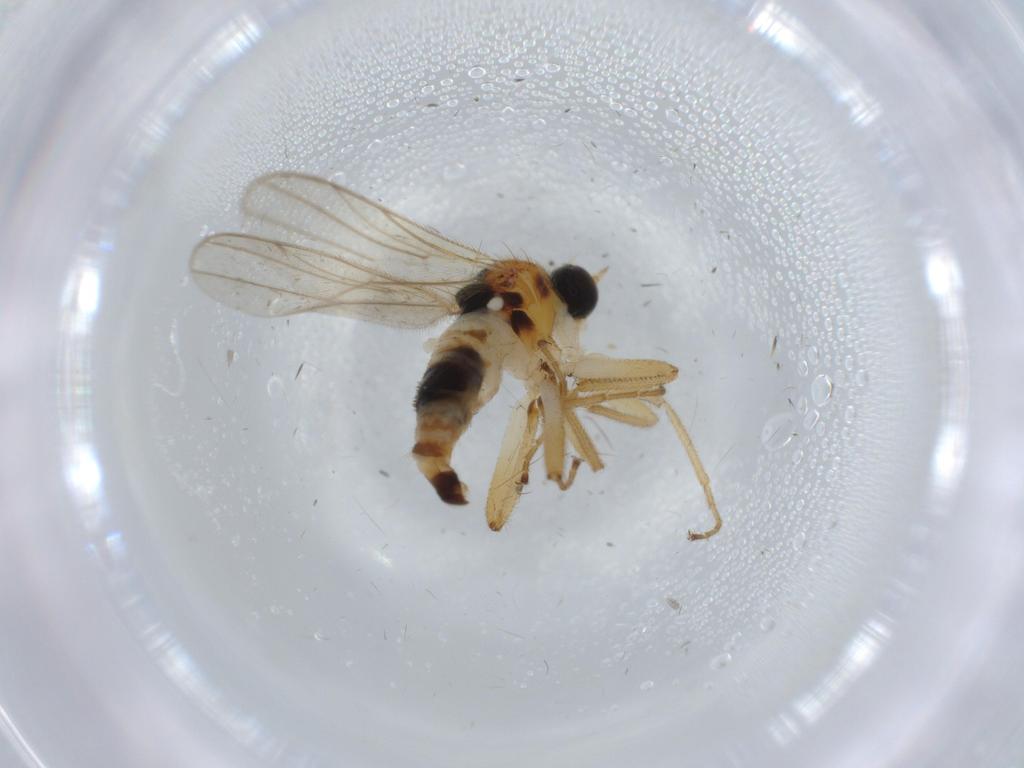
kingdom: Animalia
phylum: Arthropoda
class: Insecta
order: Diptera
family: Hybotidae
